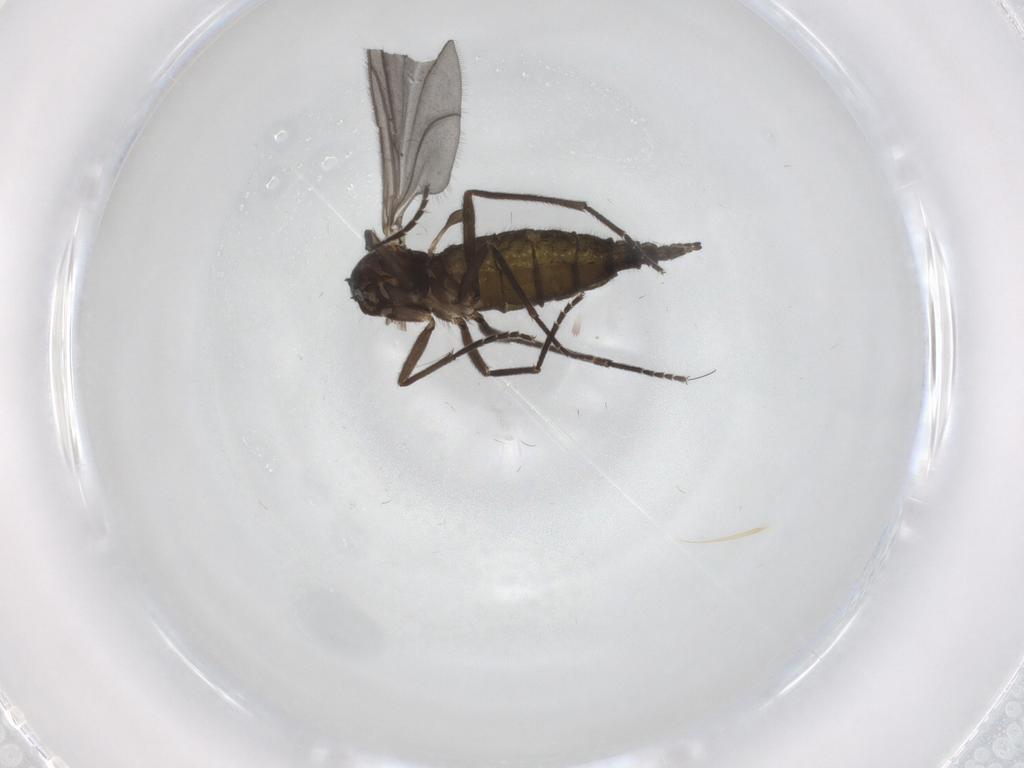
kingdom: Animalia
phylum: Arthropoda
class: Insecta
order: Diptera
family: Sciaridae
